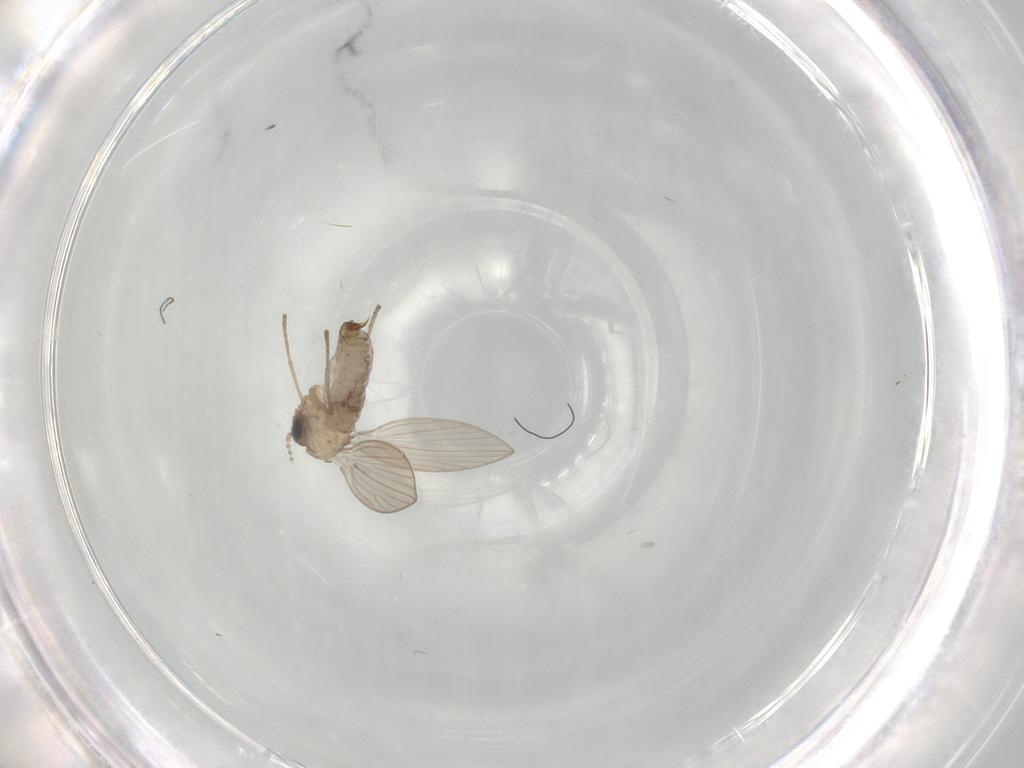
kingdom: Animalia
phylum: Arthropoda
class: Insecta
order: Diptera
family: Psychodidae
